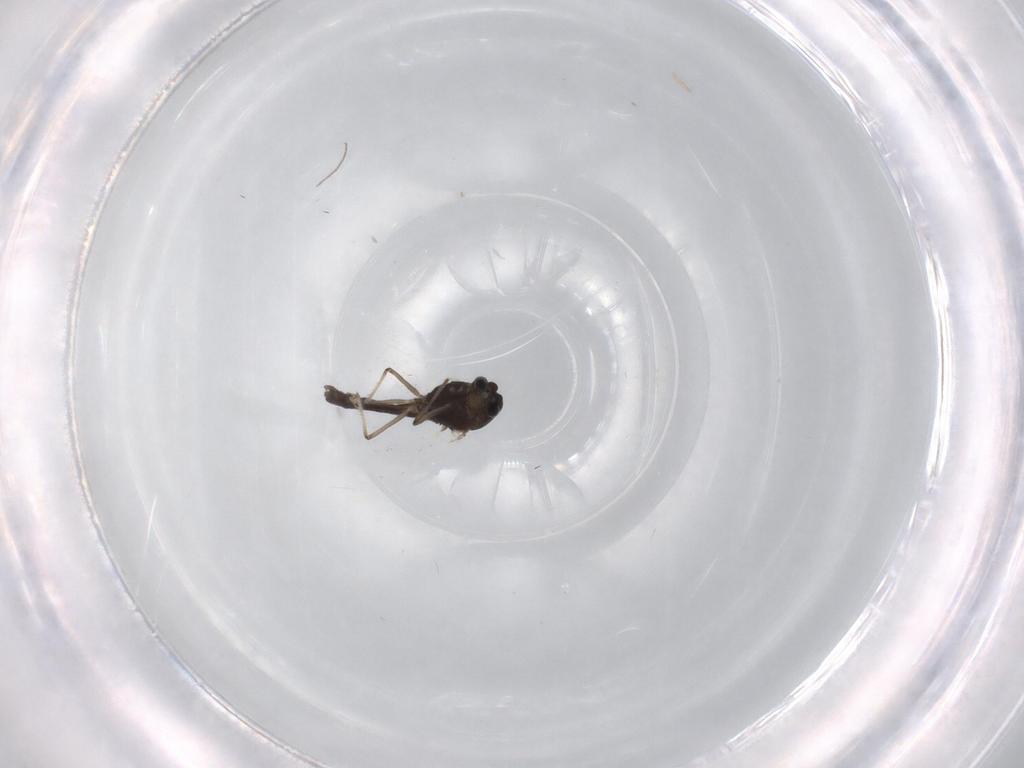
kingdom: Animalia
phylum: Arthropoda
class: Insecta
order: Diptera
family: Chironomidae
